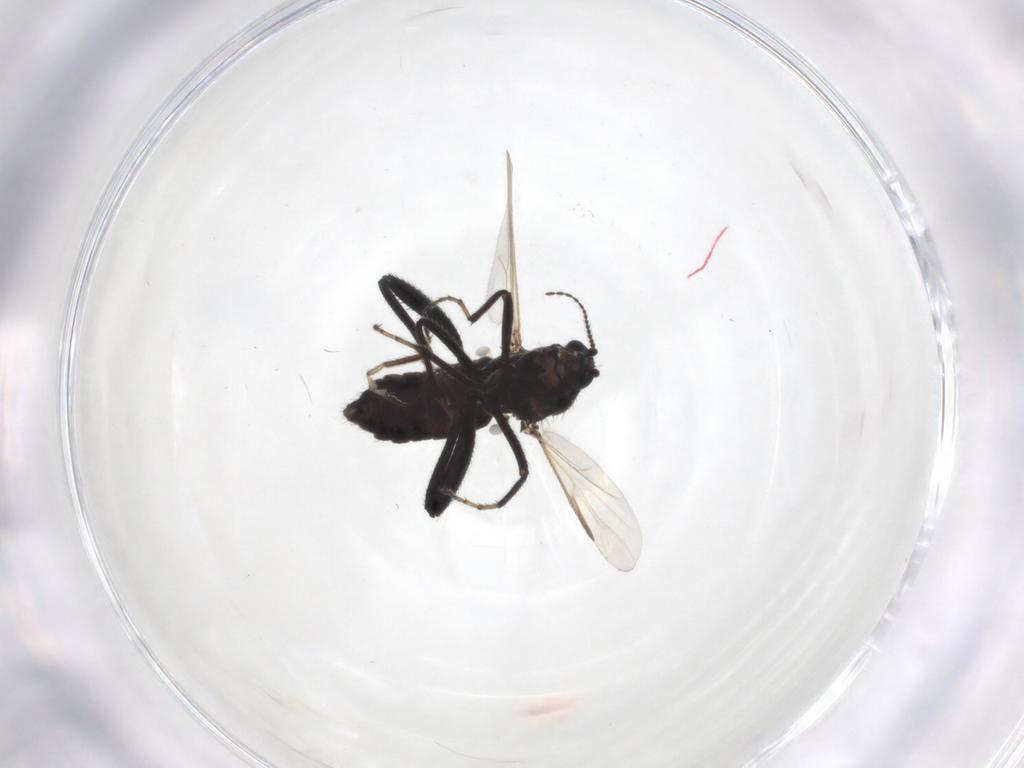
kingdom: Animalia
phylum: Arthropoda
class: Insecta
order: Diptera
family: Ceratopogonidae
